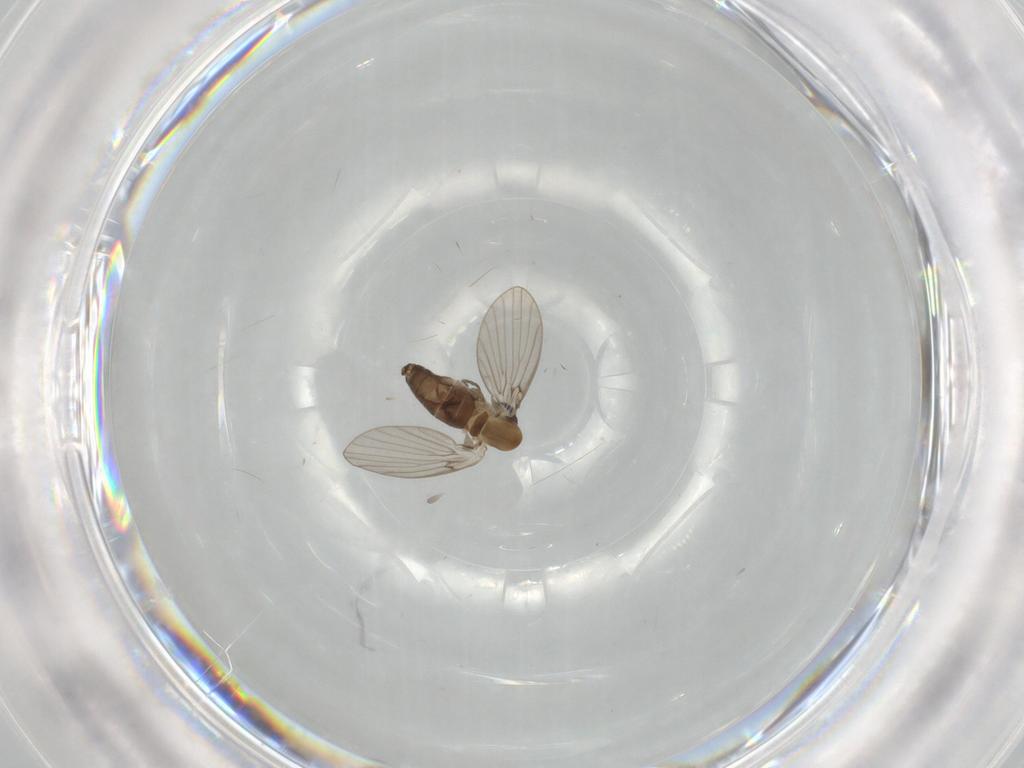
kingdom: Animalia
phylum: Arthropoda
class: Insecta
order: Diptera
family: Psychodidae
